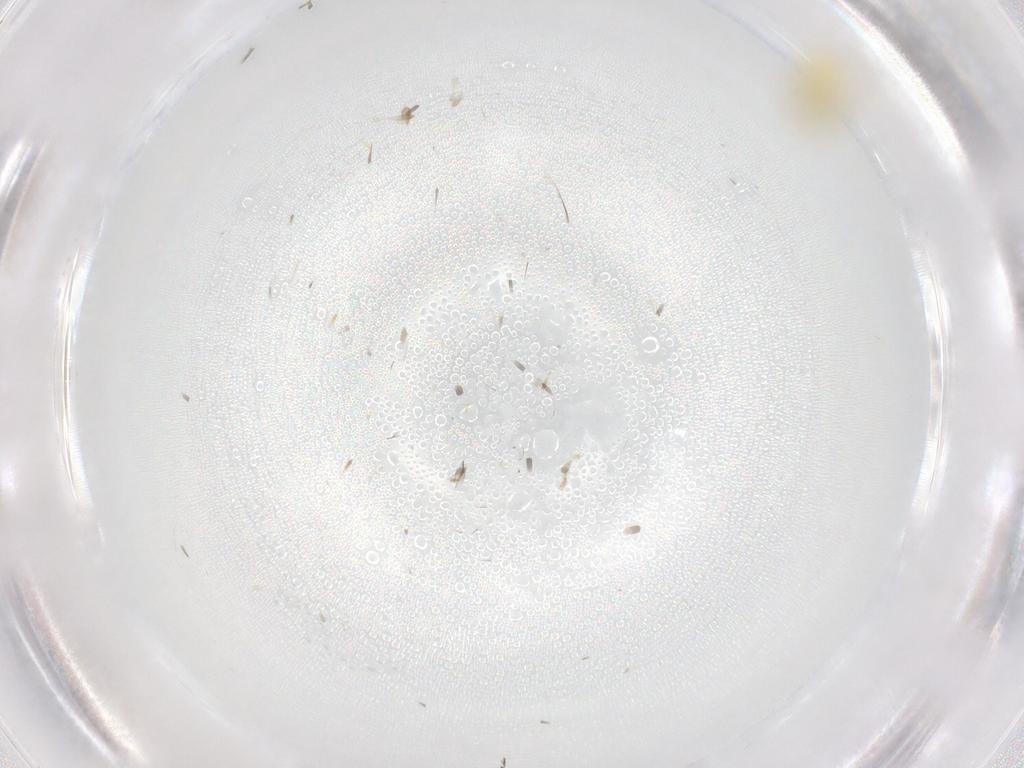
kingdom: Animalia
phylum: Arthropoda
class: Insecta
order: Hemiptera
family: Aleyrodidae
